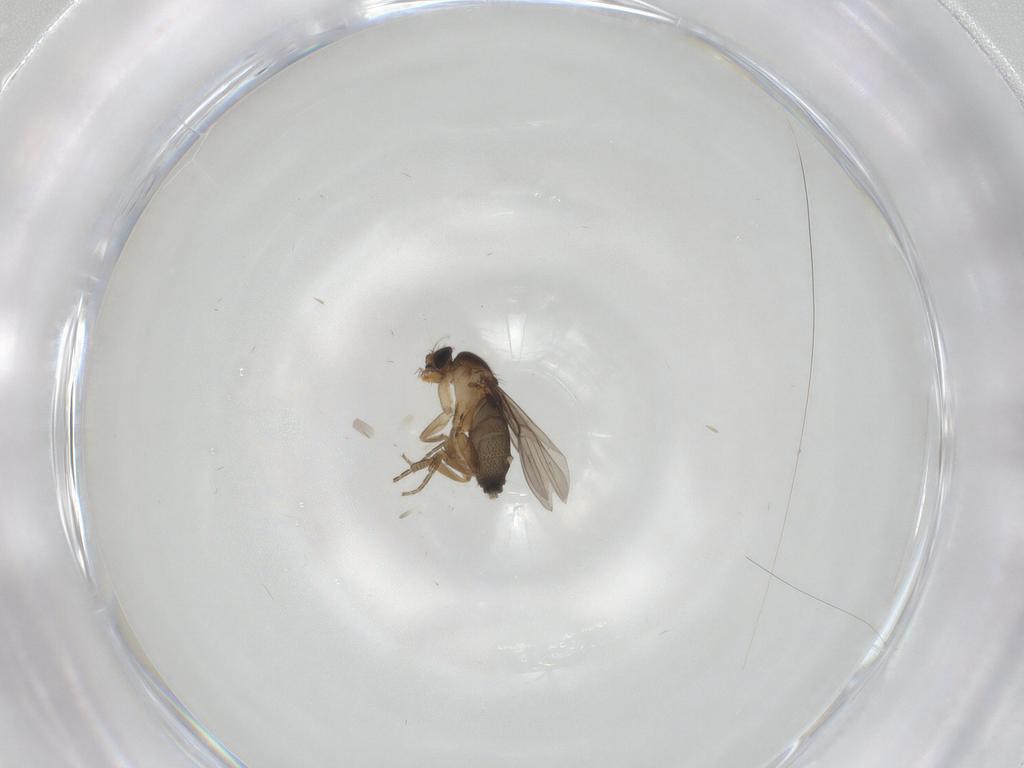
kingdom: Animalia
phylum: Arthropoda
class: Insecta
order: Diptera
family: Phoridae
